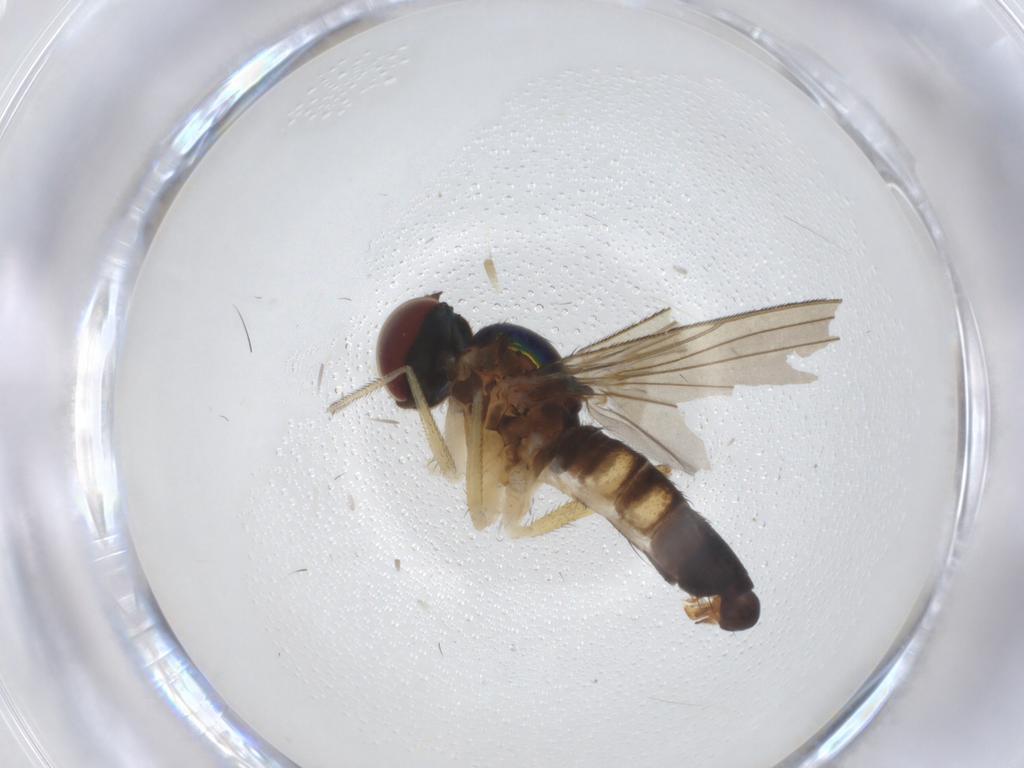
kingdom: Animalia
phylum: Arthropoda
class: Insecta
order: Diptera
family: Dolichopodidae
